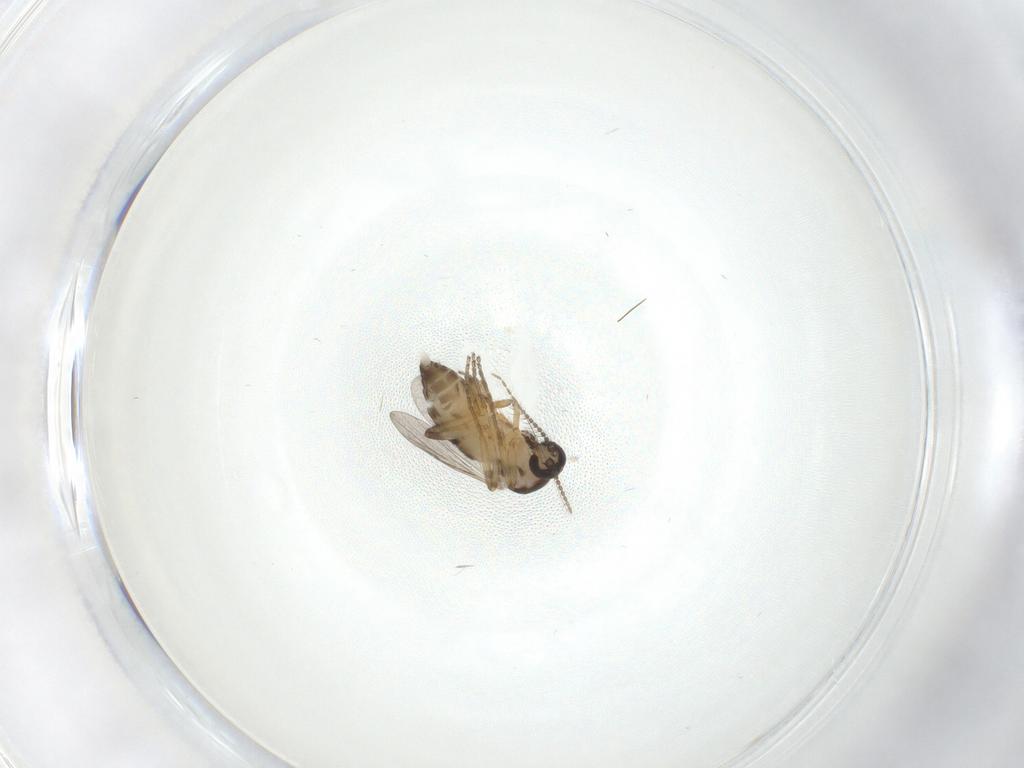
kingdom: Animalia
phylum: Arthropoda
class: Insecta
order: Diptera
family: Ceratopogonidae
